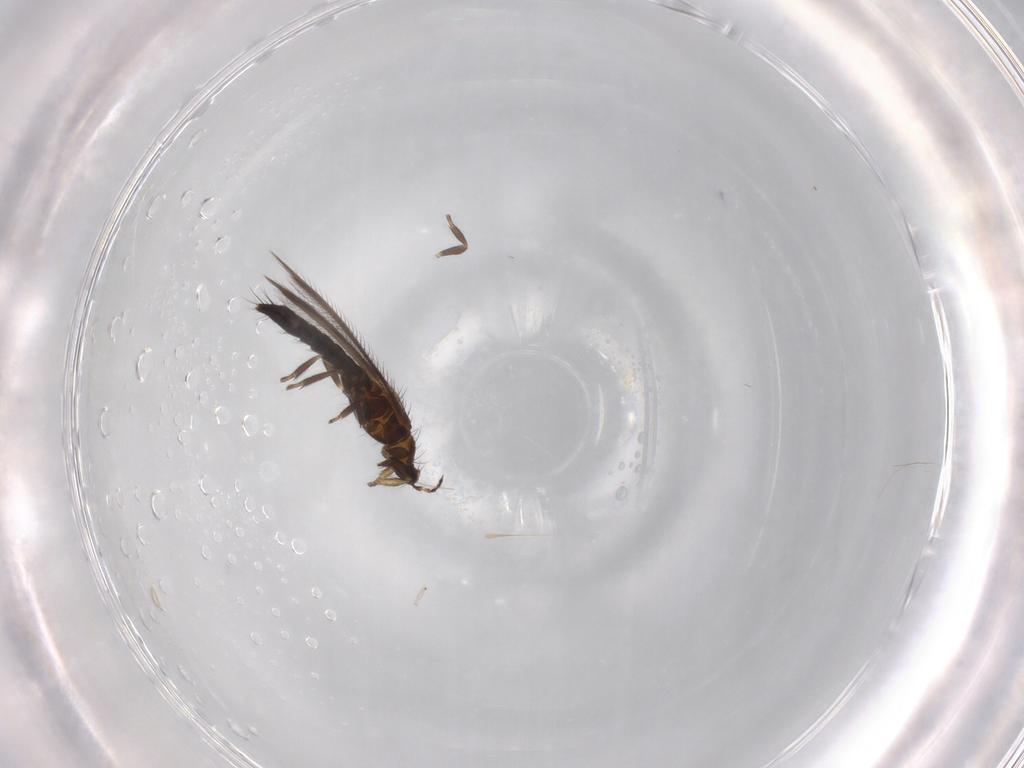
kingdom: Animalia
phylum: Arthropoda
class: Insecta
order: Thysanoptera
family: Thripidae
